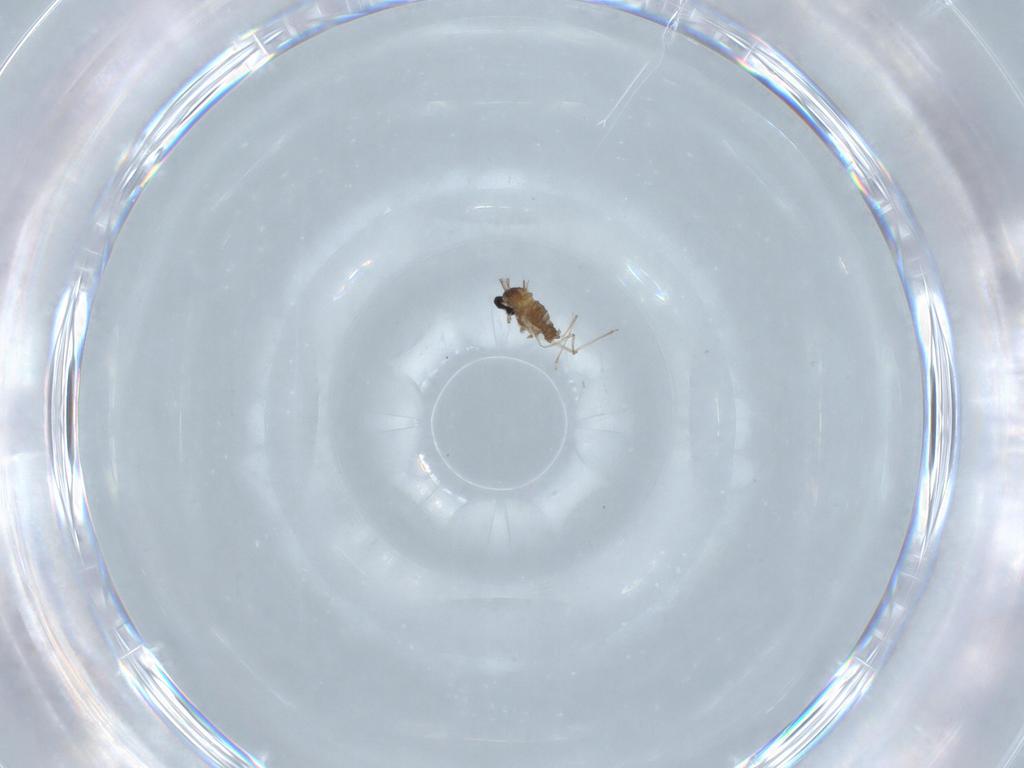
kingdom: Animalia
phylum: Arthropoda
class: Insecta
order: Diptera
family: Cecidomyiidae
